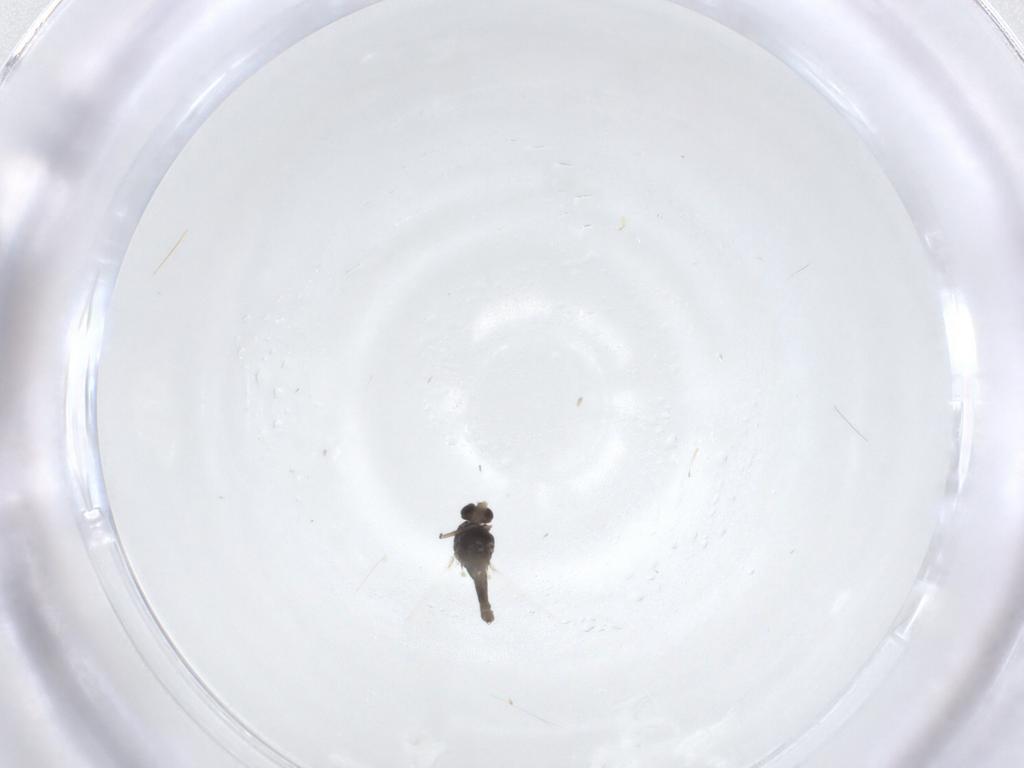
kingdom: Animalia
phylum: Arthropoda
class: Insecta
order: Diptera
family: Chironomidae
